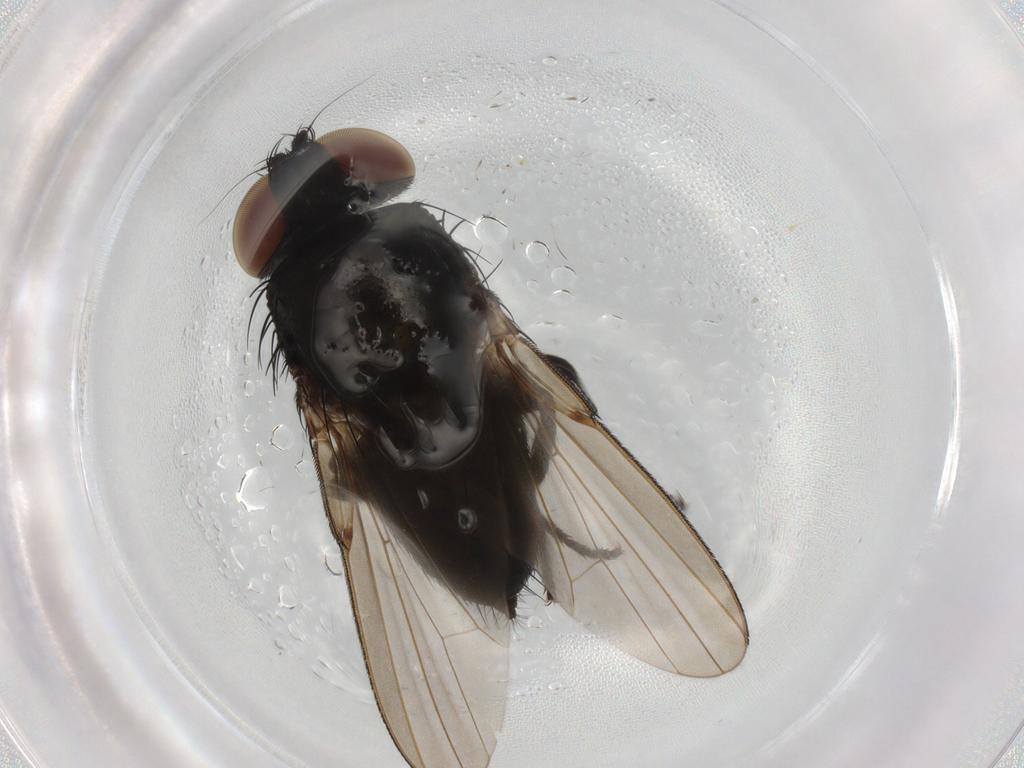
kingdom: Animalia
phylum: Arthropoda
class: Insecta
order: Diptera
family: Milichiidae
